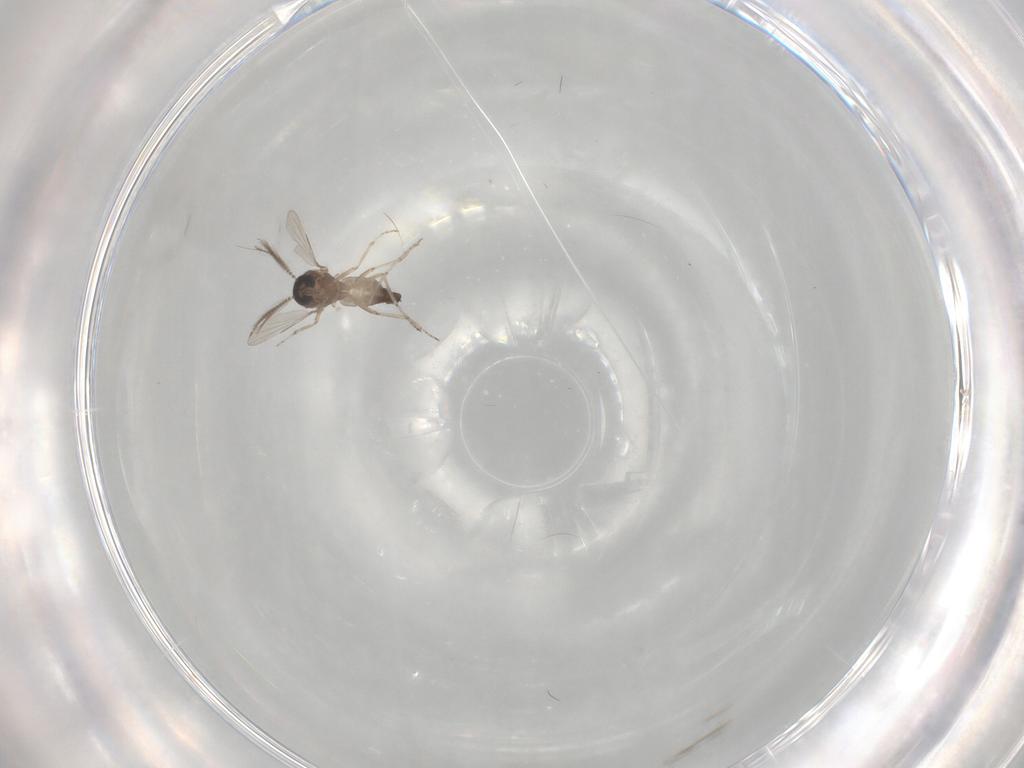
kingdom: Animalia
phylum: Arthropoda
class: Insecta
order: Diptera
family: Ceratopogonidae
